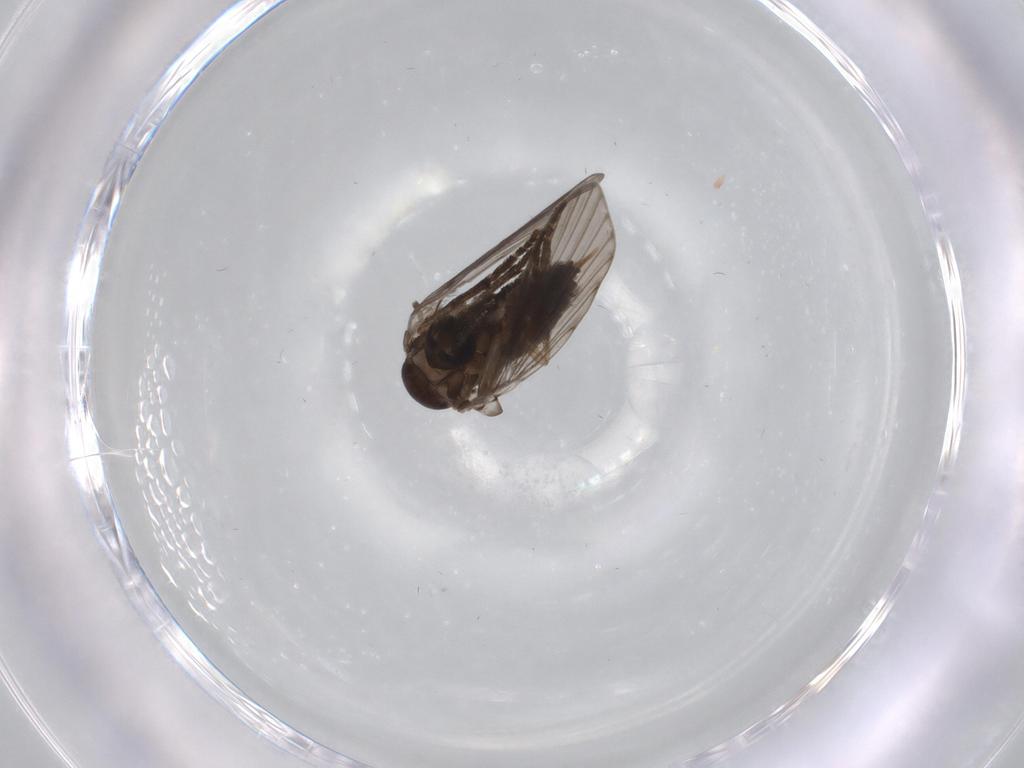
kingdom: Animalia
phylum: Arthropoda
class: Insecta
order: Diptera
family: Psychodidae
